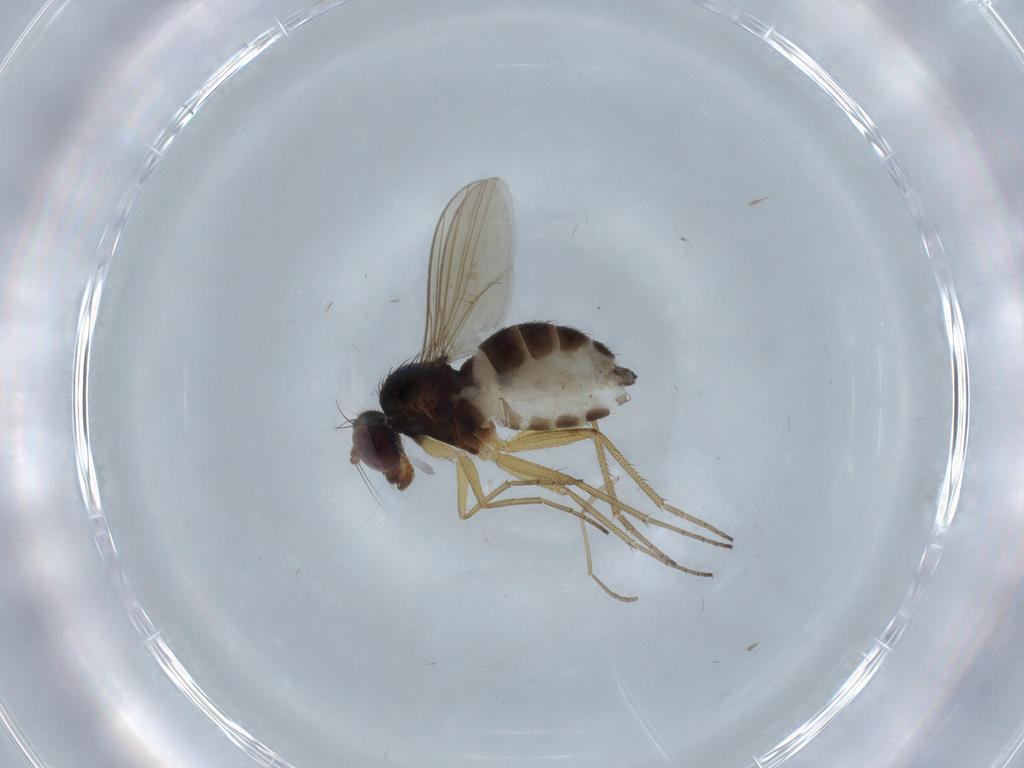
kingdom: Animalia
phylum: Arthropoda
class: Insecta
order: Diptera
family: Dolichopodidae
